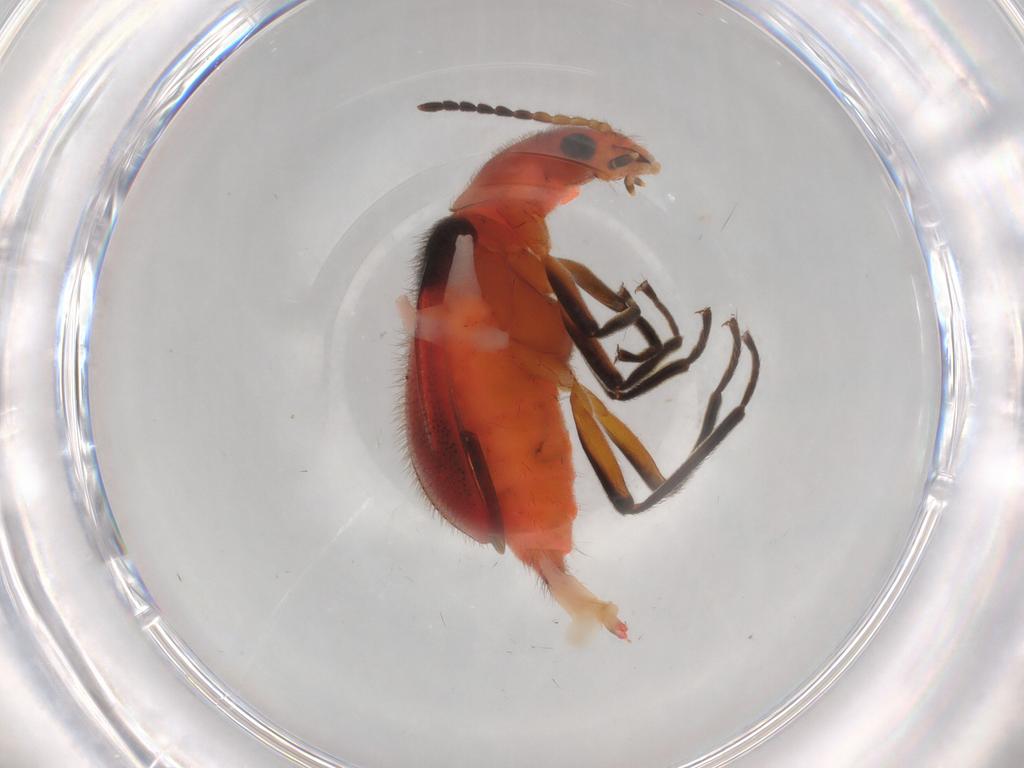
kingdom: Animalia
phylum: Arthropoda
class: Insecta
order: Coleoptera
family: Melyridae
